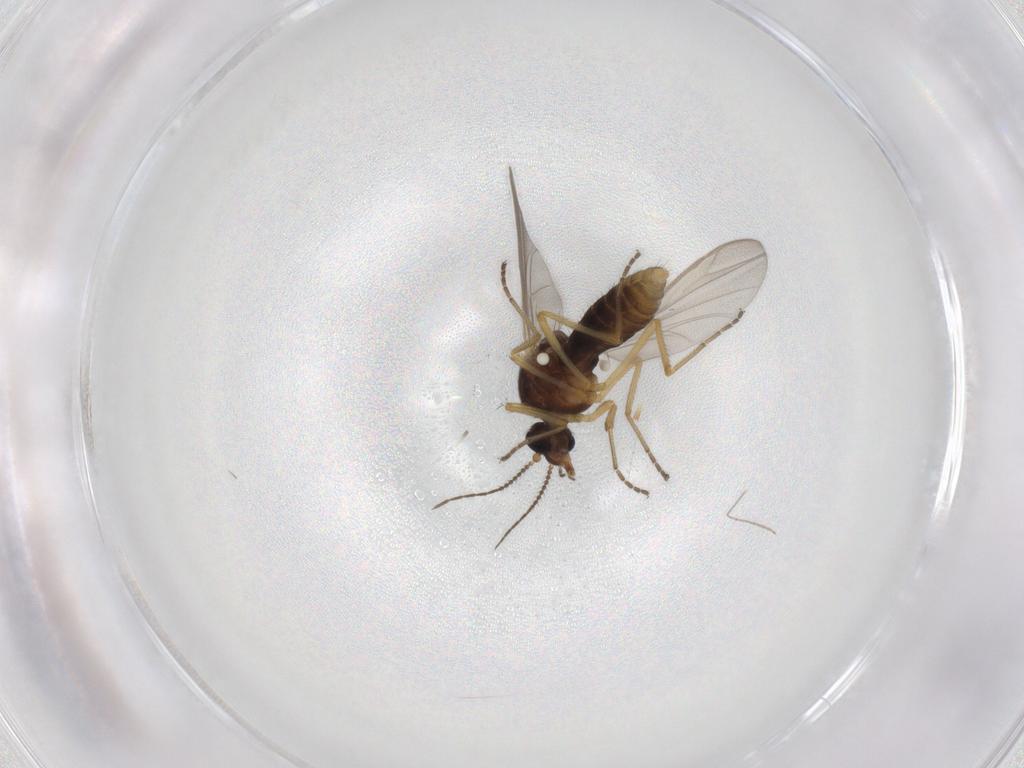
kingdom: Animalia
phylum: Arthropoda
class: Insecta
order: Diptera
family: Ceratopogonidae
